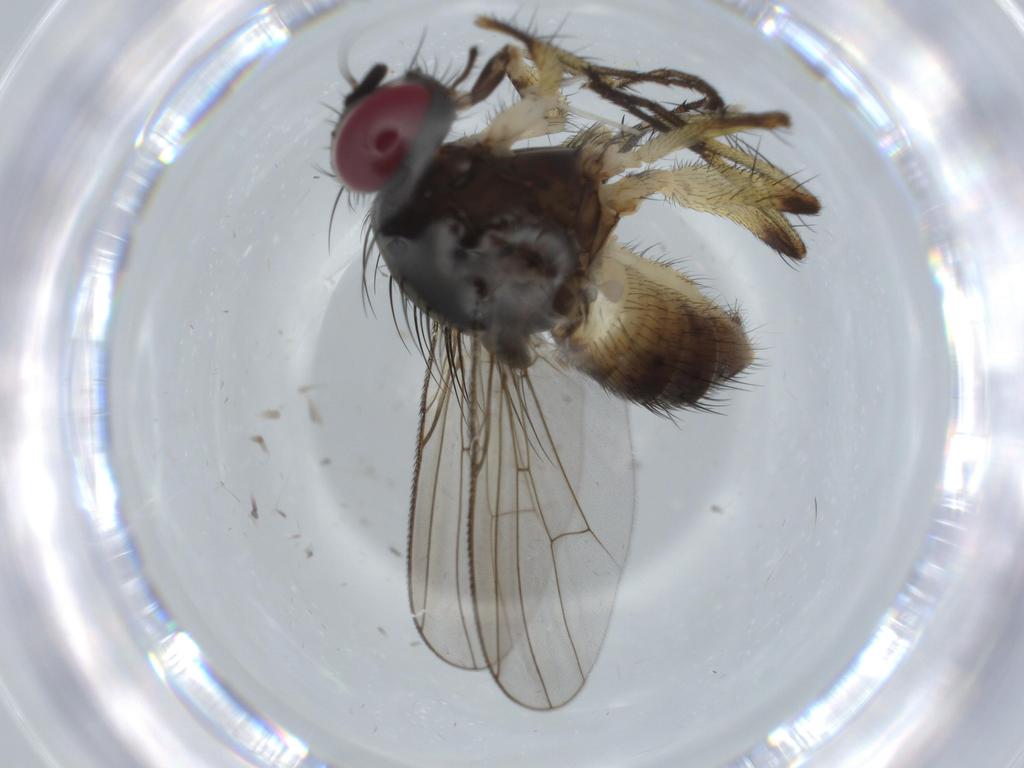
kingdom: Animalia
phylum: Arthropoda
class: Insecta
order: Diptera
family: Muscidae
